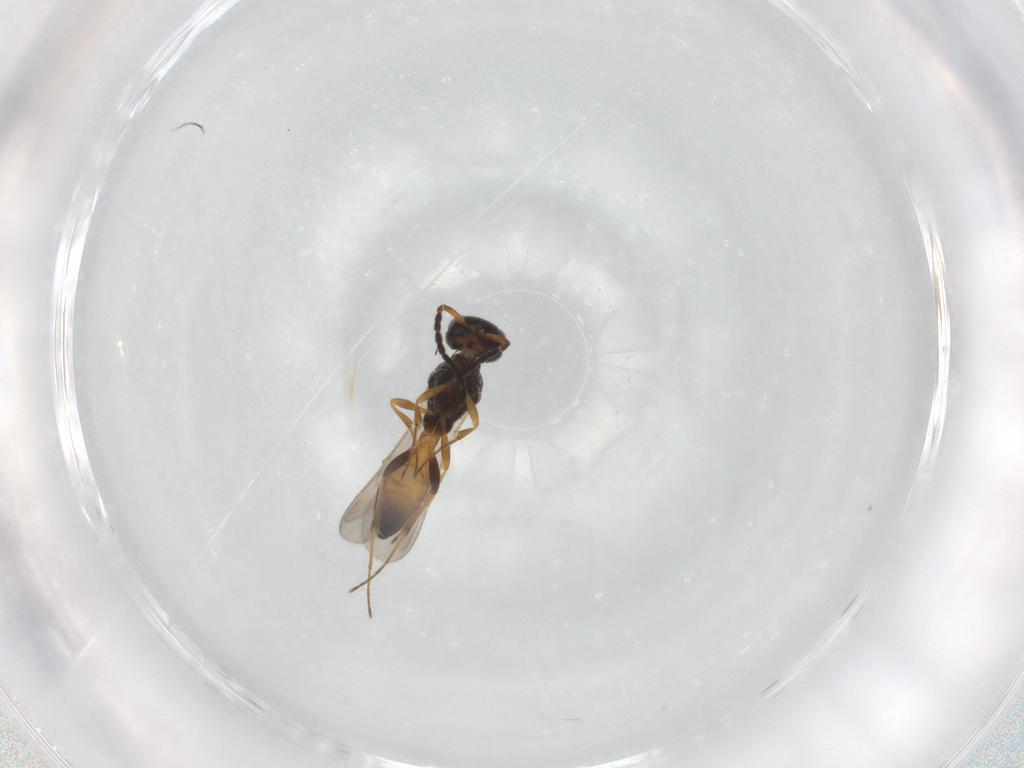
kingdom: Animalia
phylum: Arthropoda
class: Insecta
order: Hymenoptera
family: Scelionidae
